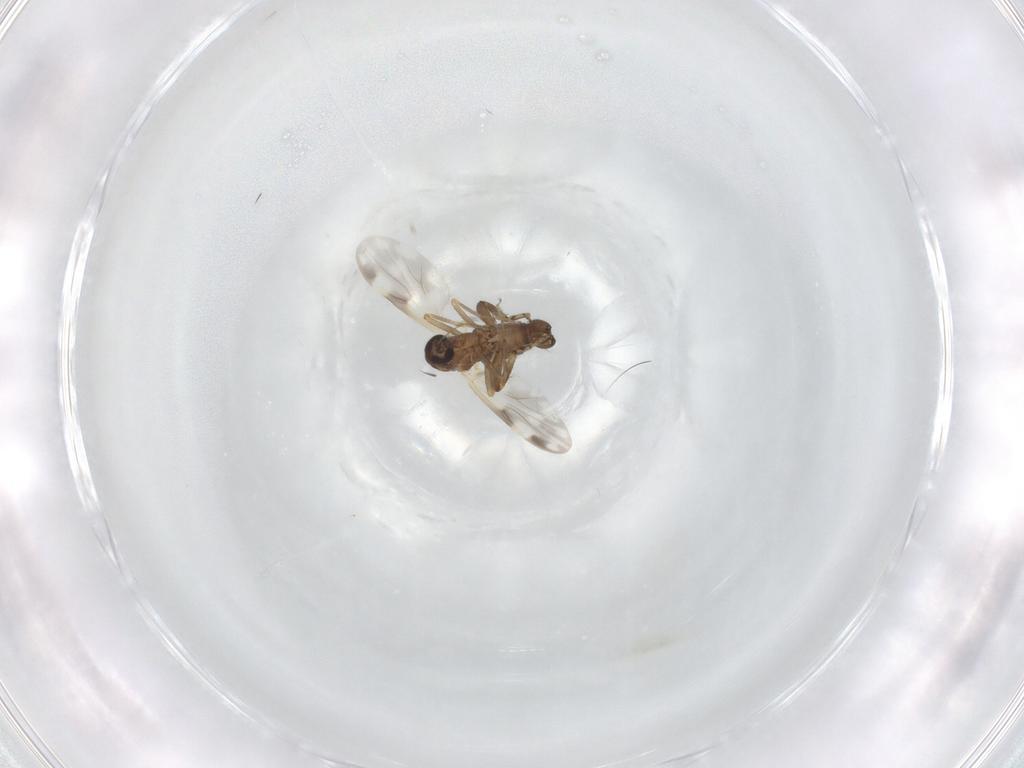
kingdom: Animalia
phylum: Arthropoda
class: Insecta
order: Diptera
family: Ceratopogonidae
